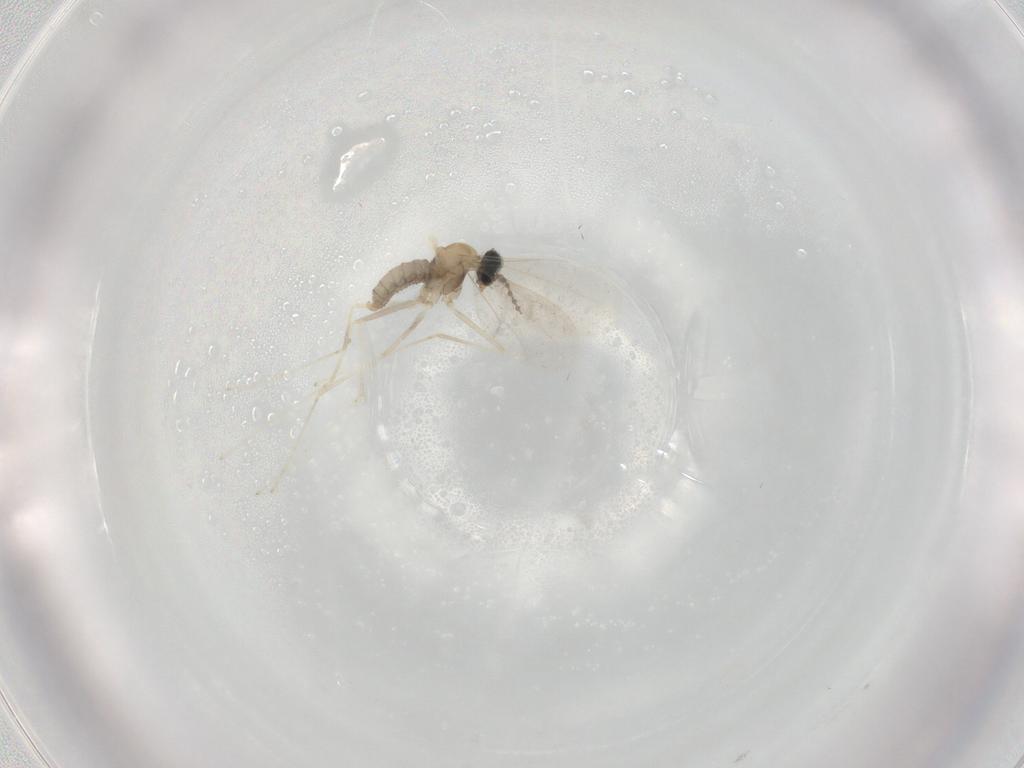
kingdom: Animalia
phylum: Arthropoda
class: Insecta
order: Diptera
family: Cecidomyiidae
